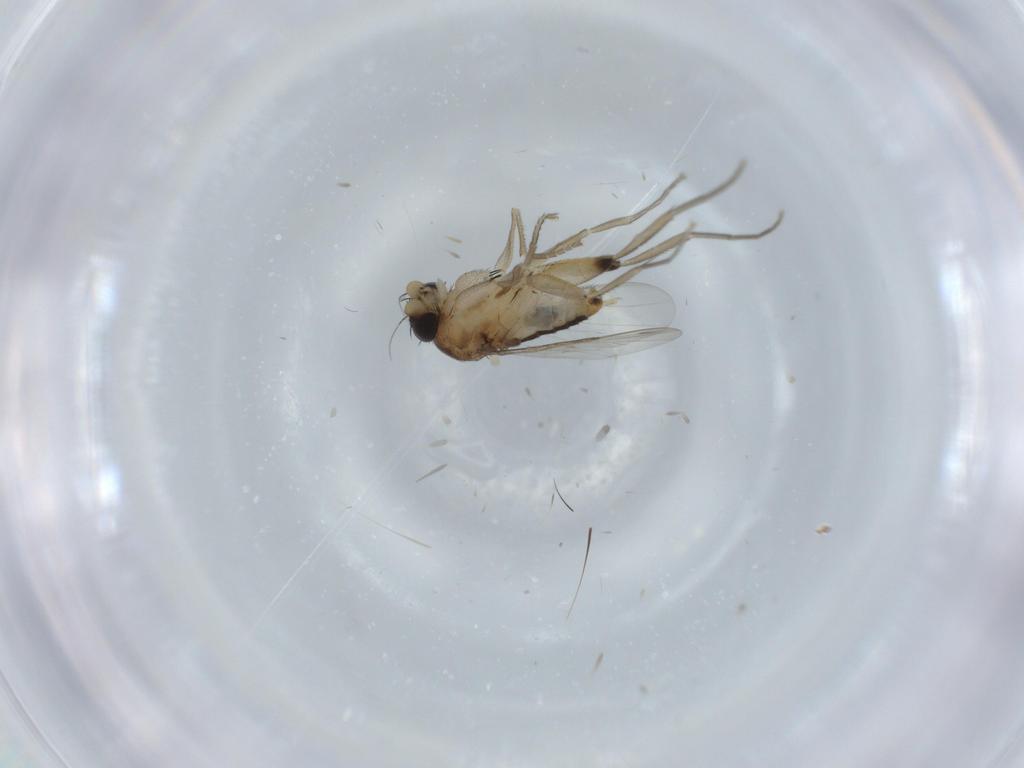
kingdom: Animalia
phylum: Arthropoda
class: Insecta
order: Diptera
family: Phoridae
